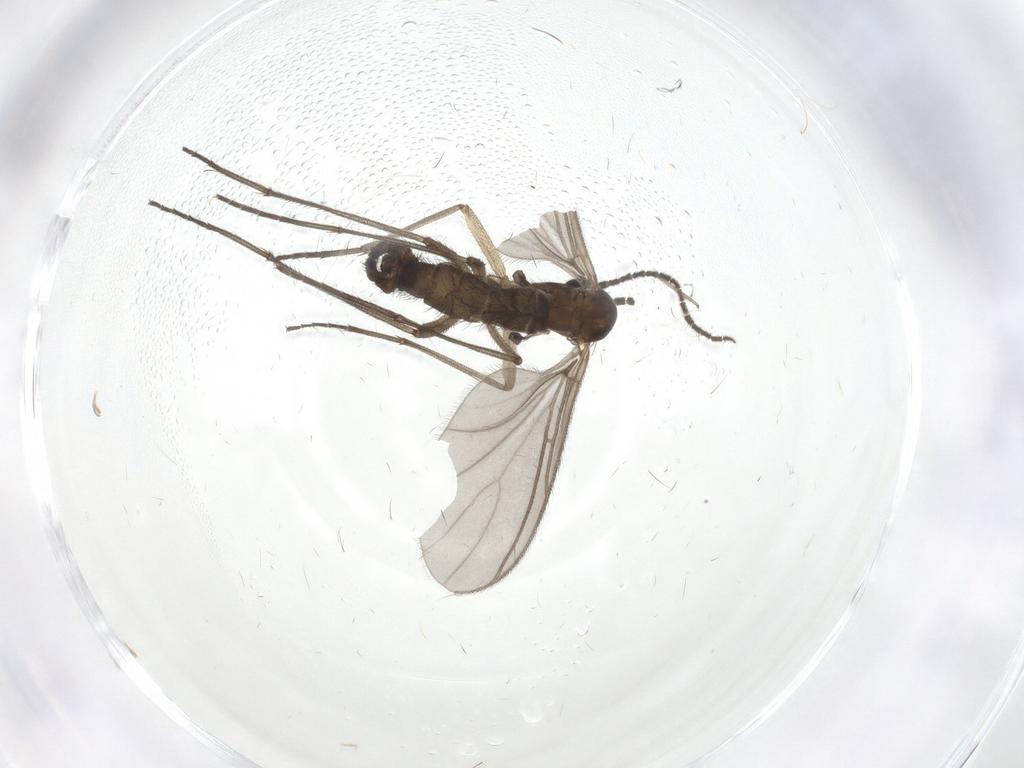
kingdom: Animalia
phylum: Arthropoda
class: Insecta
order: Diptera
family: Sciaridae
